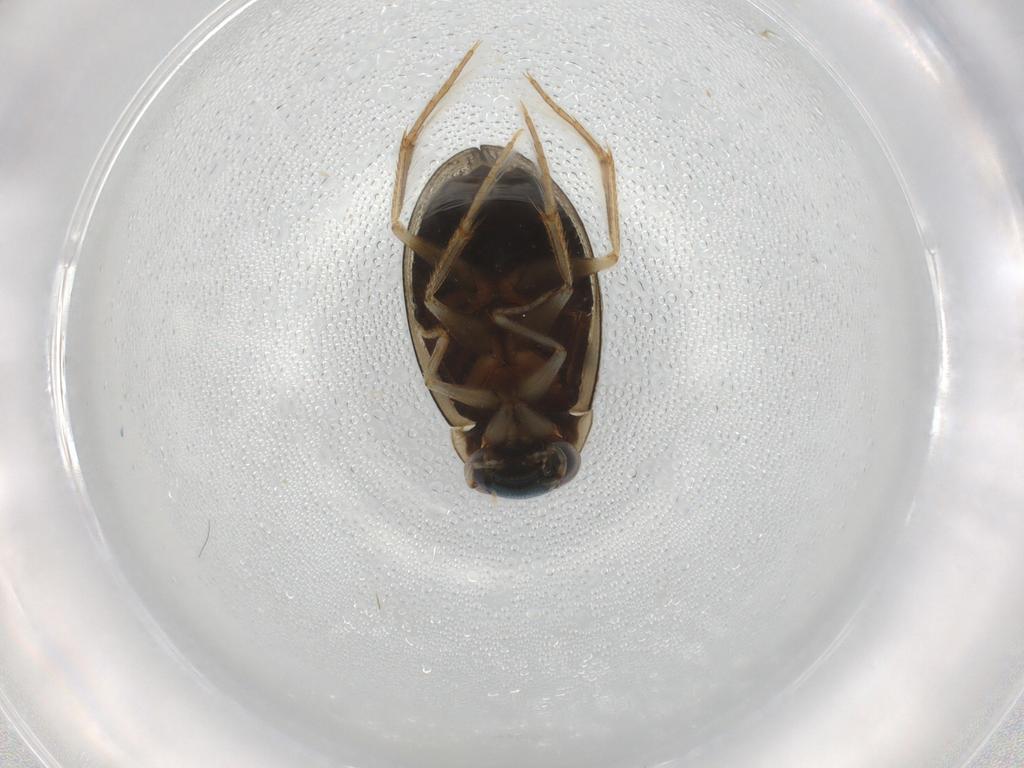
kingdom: Animalia
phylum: Arthropoda
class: Insecta
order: Coleoptera
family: Hydrophilidae
